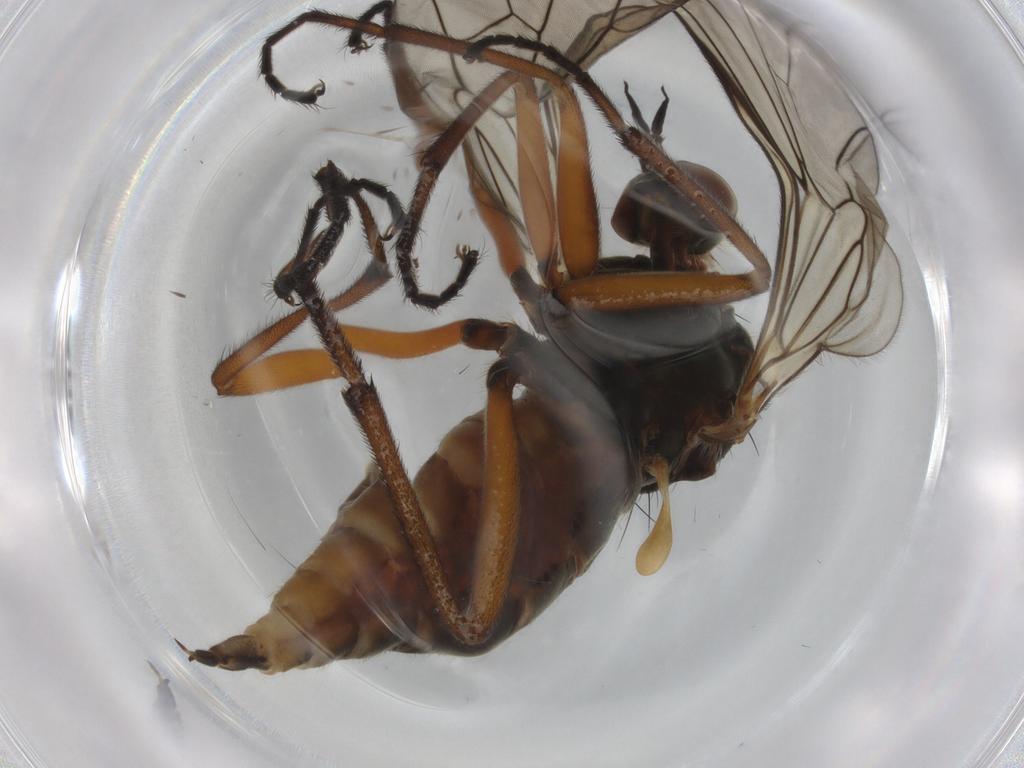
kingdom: Animalia
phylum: Arthropoda
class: Insecta
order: Diptera
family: Empididae
